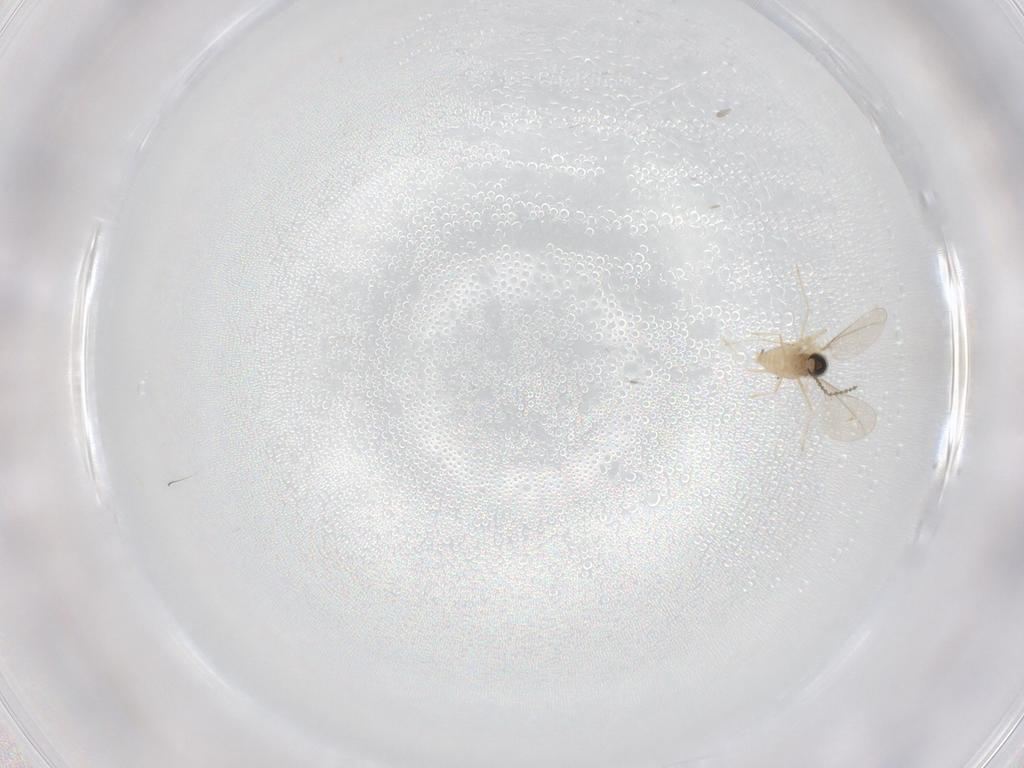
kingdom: Animalia
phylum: Arthropoda
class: Insecta
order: Diptera
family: Cecidomyiidae
